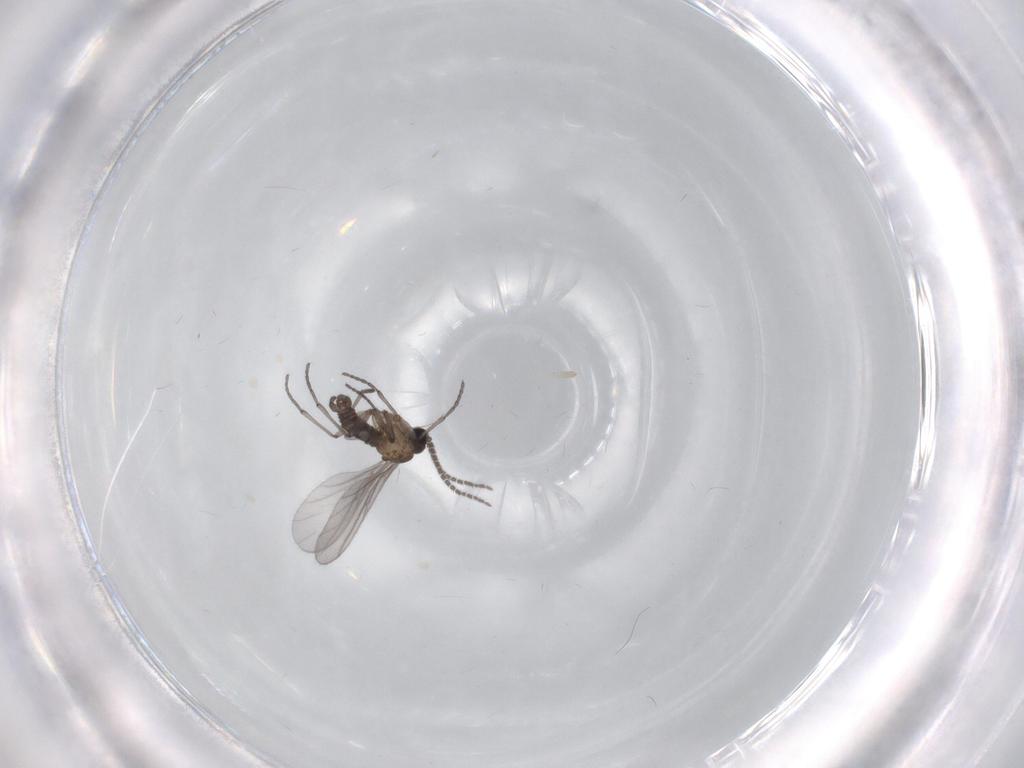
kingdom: Animalia
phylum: Arthropoda
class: Insecta
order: Diptera
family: Sciaridae
